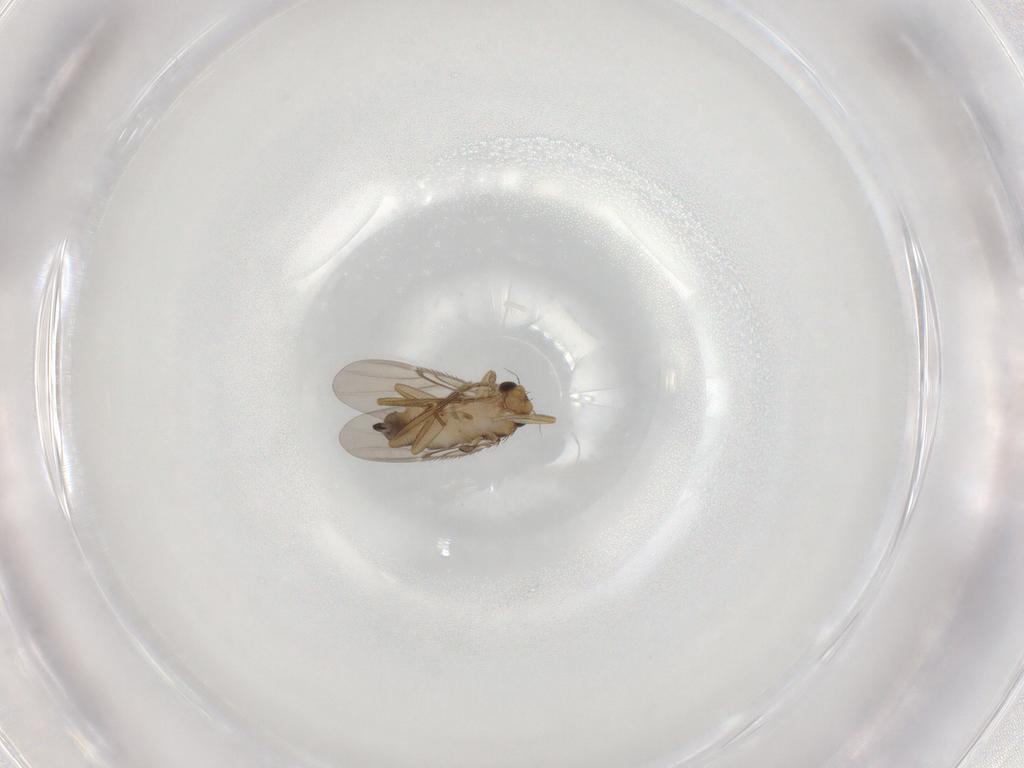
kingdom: Animalia
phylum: Arthropoda
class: Insecta
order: Diptera
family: Phoridae
